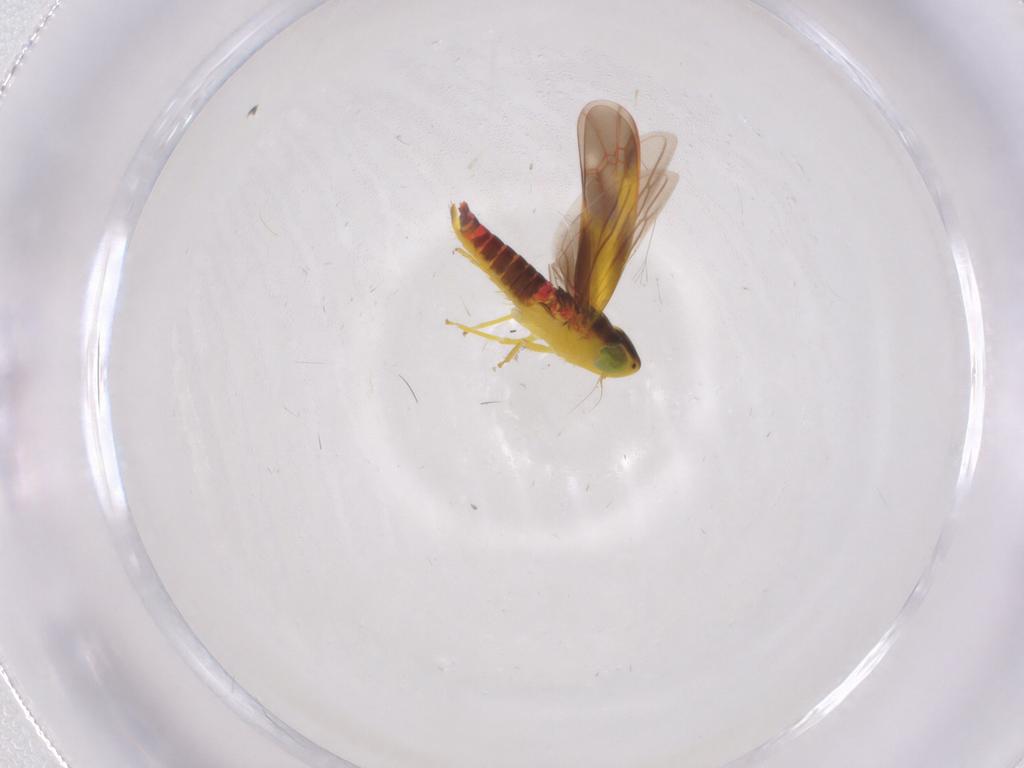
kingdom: Animalia
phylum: Arthropoda
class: Insecta
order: Hemiptera
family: Cicadellidae
